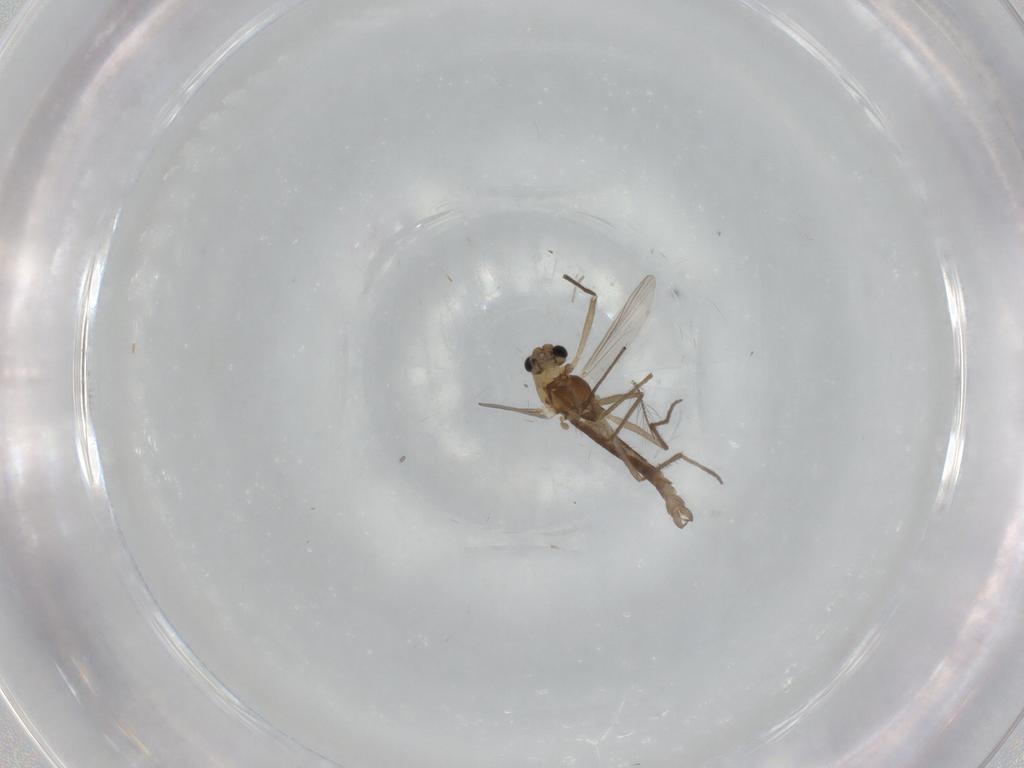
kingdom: Animalia
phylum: Arthropoda
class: Insecta
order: Diptera
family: Chironomidae
